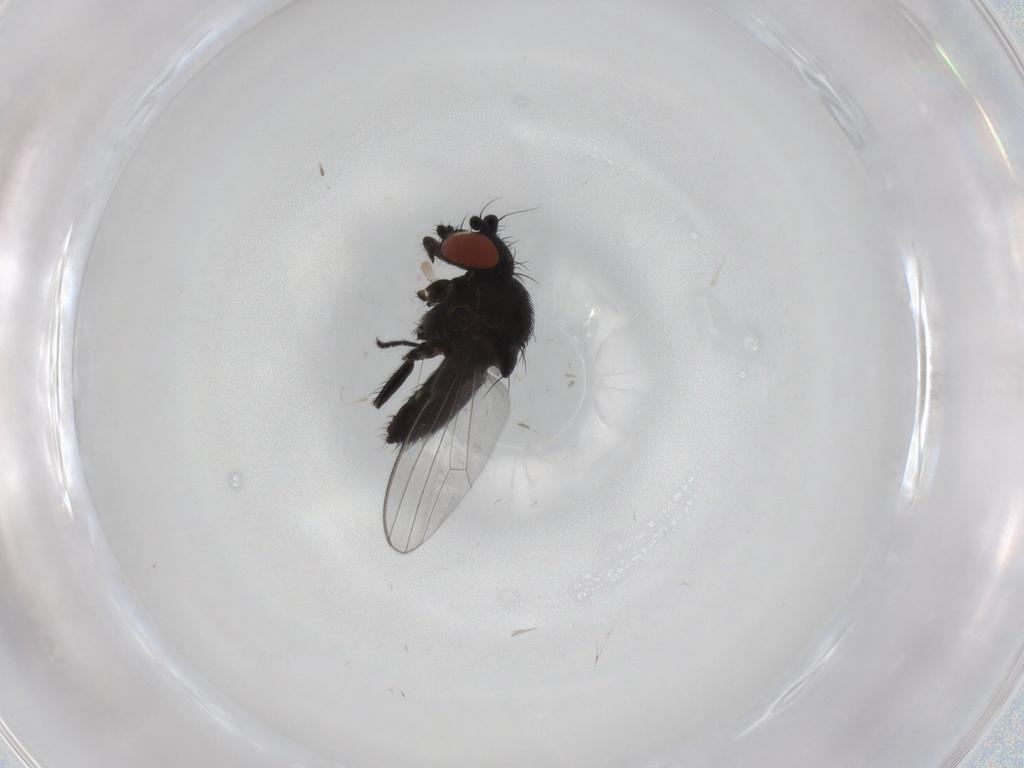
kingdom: Animalia
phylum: Arthropoda
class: Insecta
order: Diptera
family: Milichiidae
